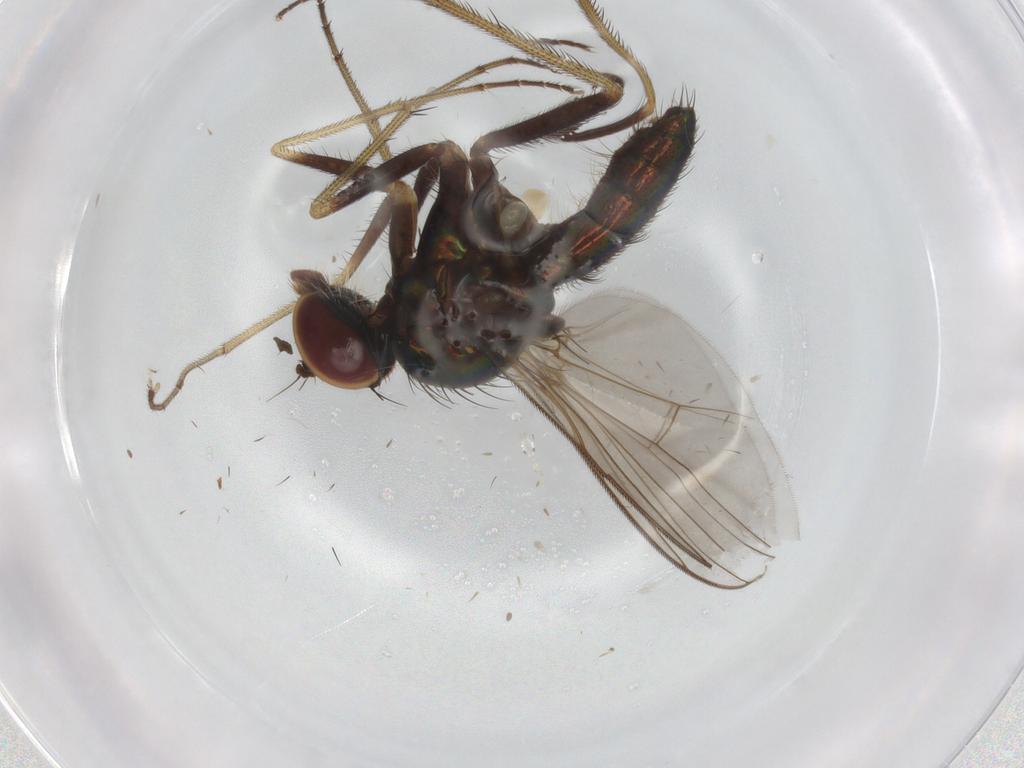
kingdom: Animalia
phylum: Arthropoda
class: Insecta
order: Diptera
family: Dolichopodidae
